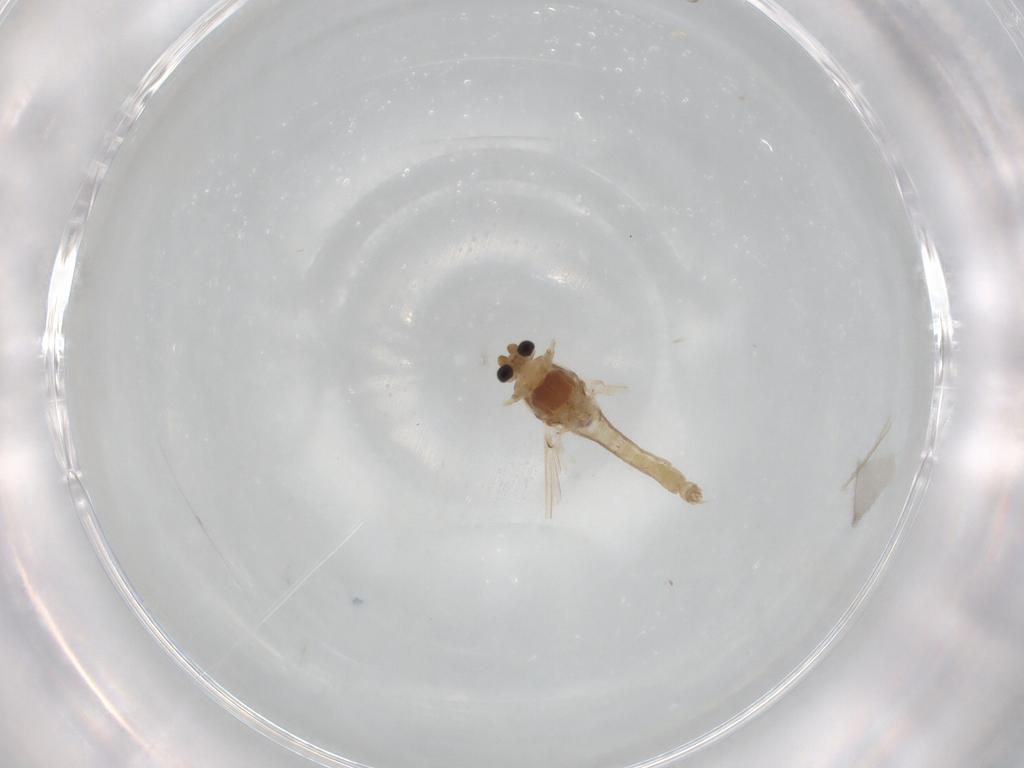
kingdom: Animalia
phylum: Arthropoda
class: Insecta
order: Diptera
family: Chironomidae
